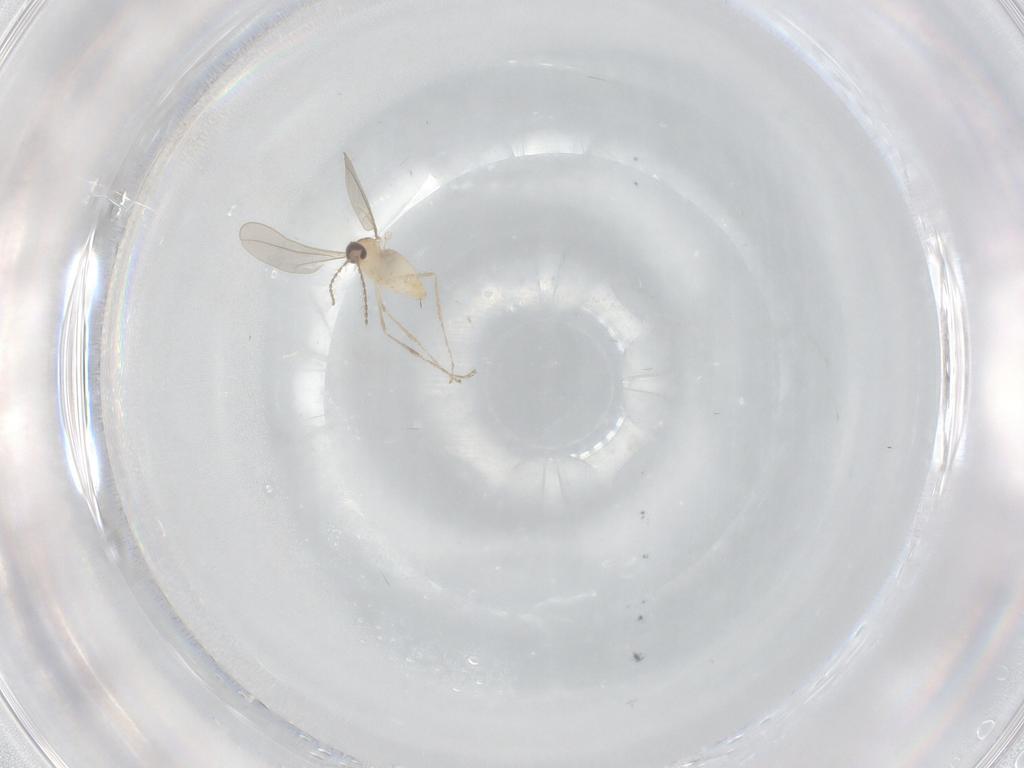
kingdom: Animalia
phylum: Arthropoda
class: Insecta
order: Diptera
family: Cecidomyiidae
